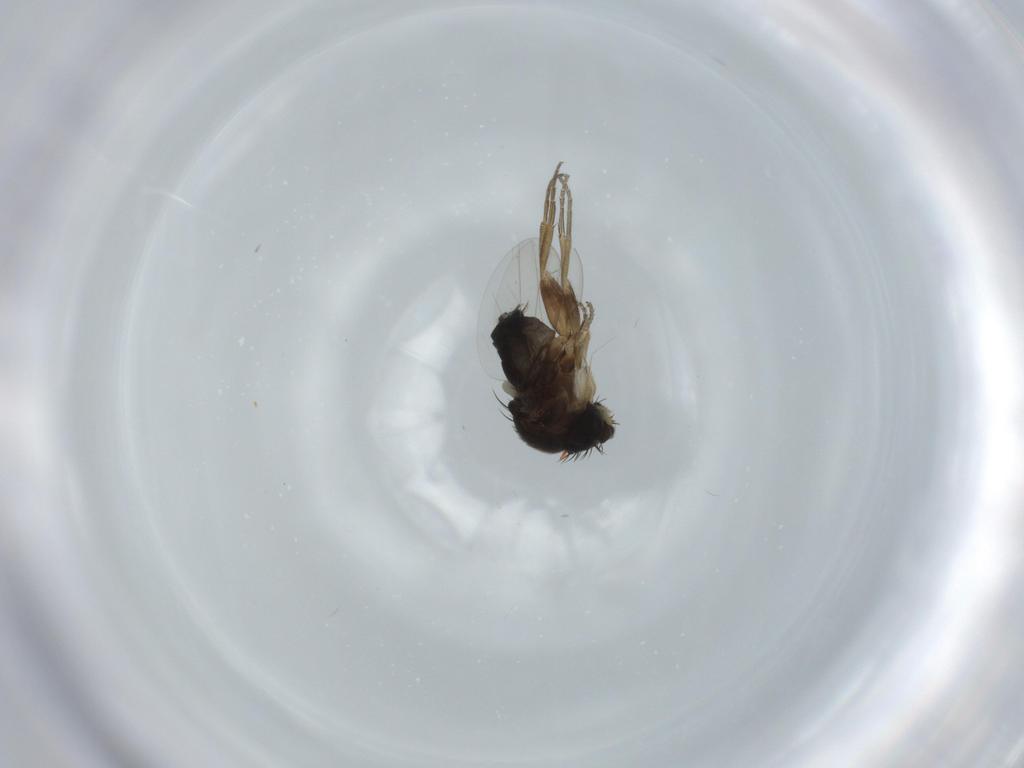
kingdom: Animalia
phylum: Arthropoda
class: Insecta
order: Diptera
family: Phoridae
